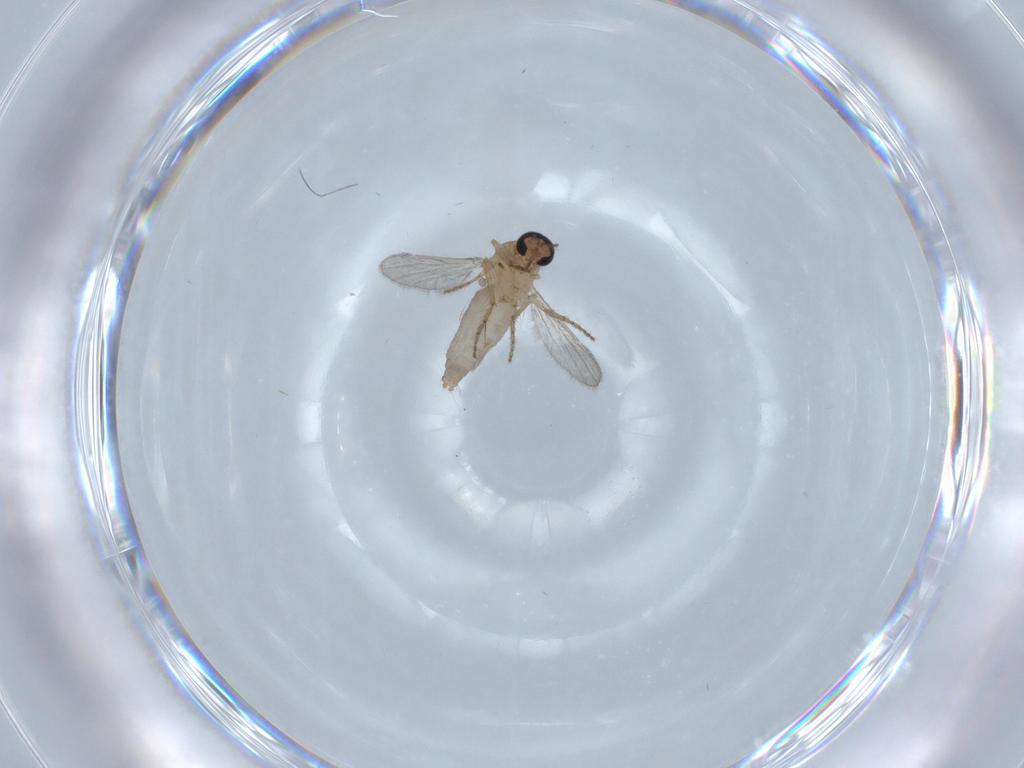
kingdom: Animalia
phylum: Arthropoda
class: Insecta
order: Diptera
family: Ceratopogonidae
